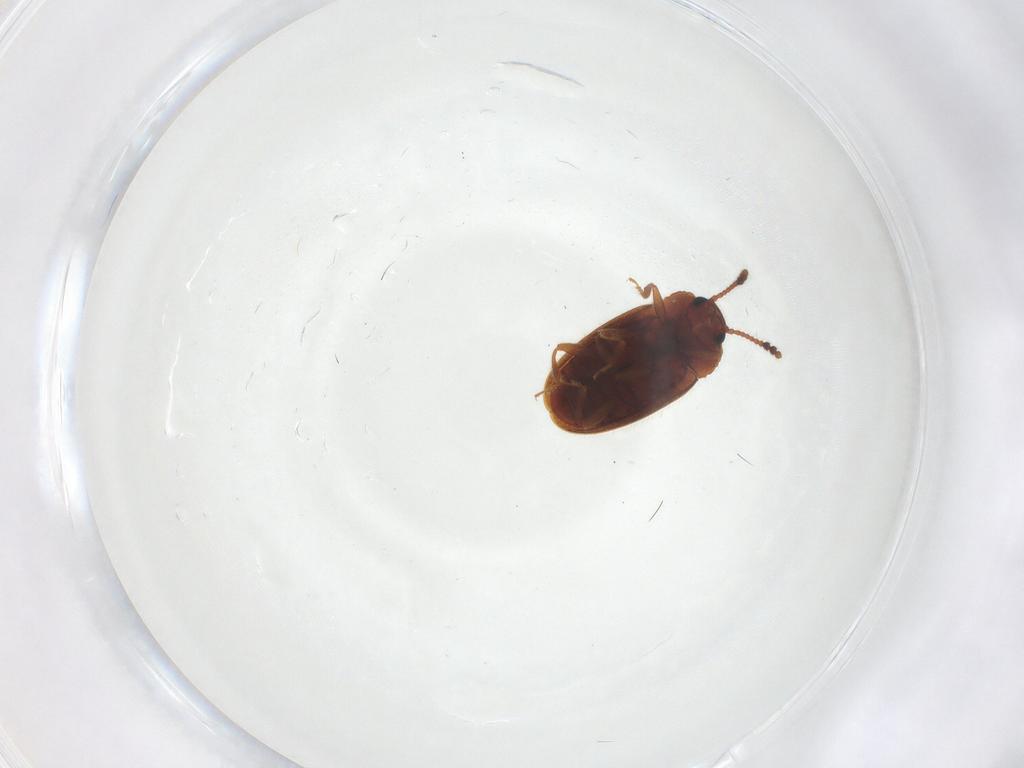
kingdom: Animalia
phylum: Arthropoda
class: Insecta
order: Coleoptera
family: Erotylidae
